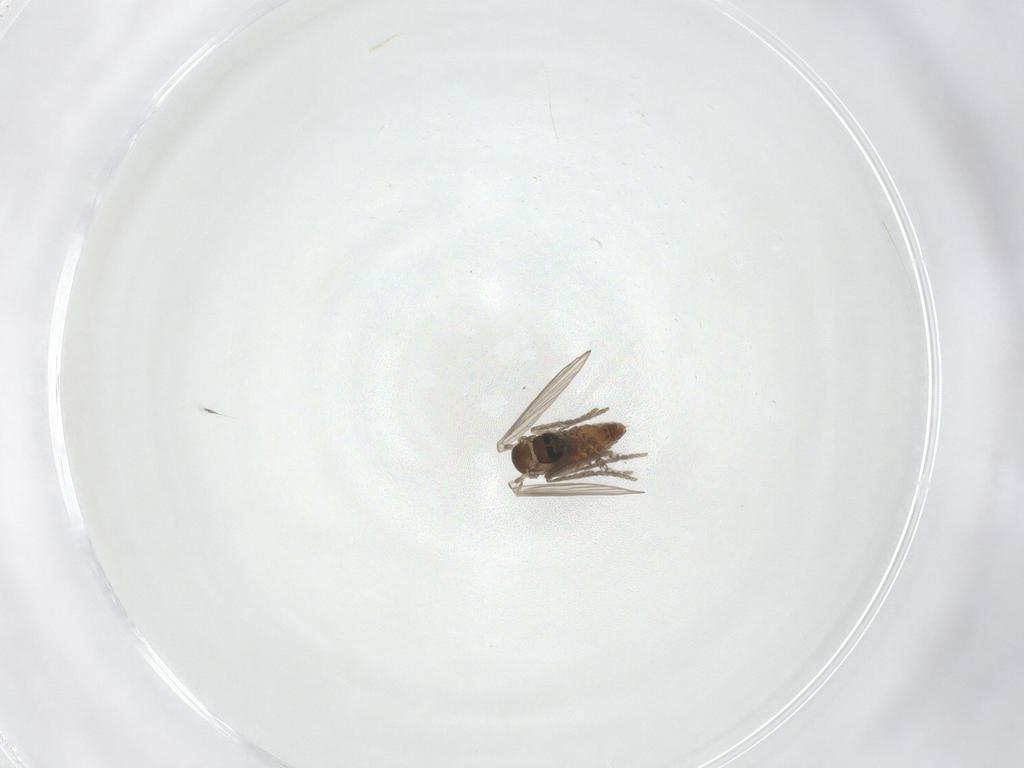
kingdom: Animalia
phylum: Arthropoda
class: Insecta
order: Diptera
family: Psychodidae
